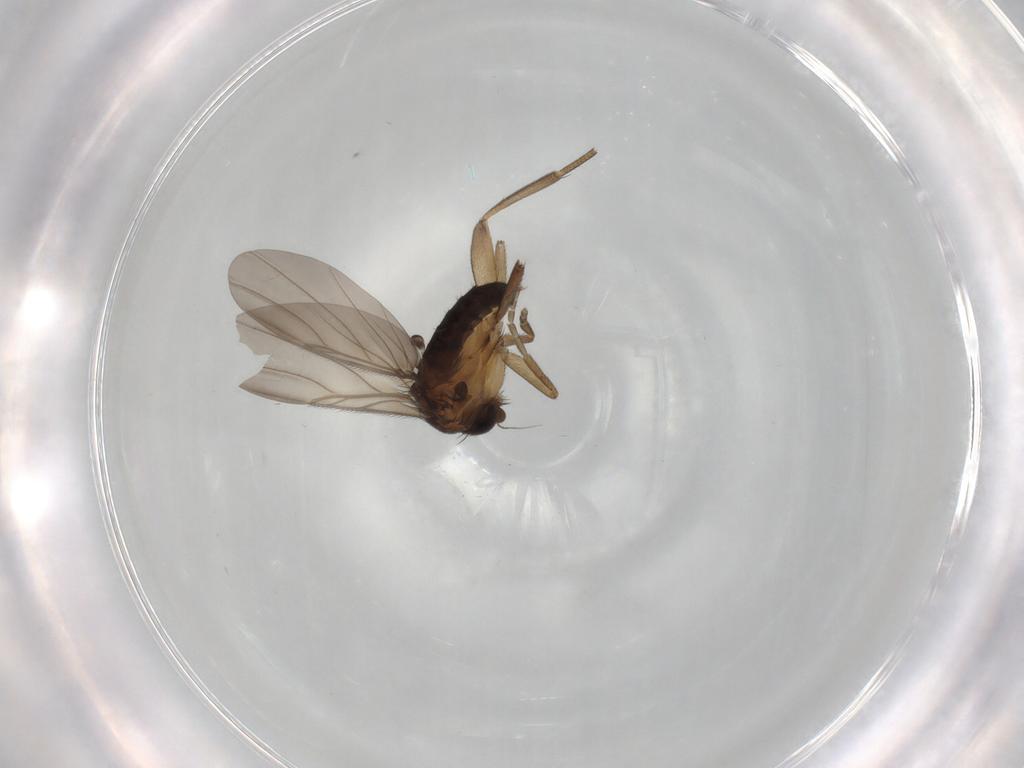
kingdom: Animalia
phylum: Arthropoda
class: Insecta
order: Diptera
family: Phoridae
